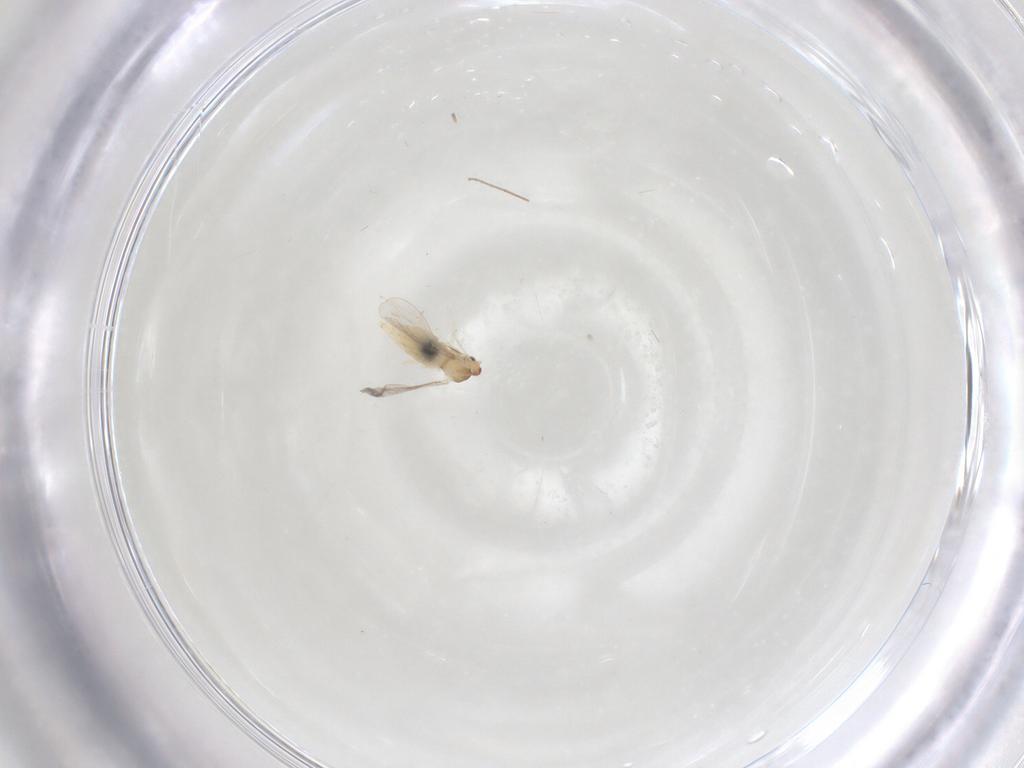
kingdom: Animalia
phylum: Arthropoda
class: Insecta
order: Diptera
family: Cecidomyiidae
